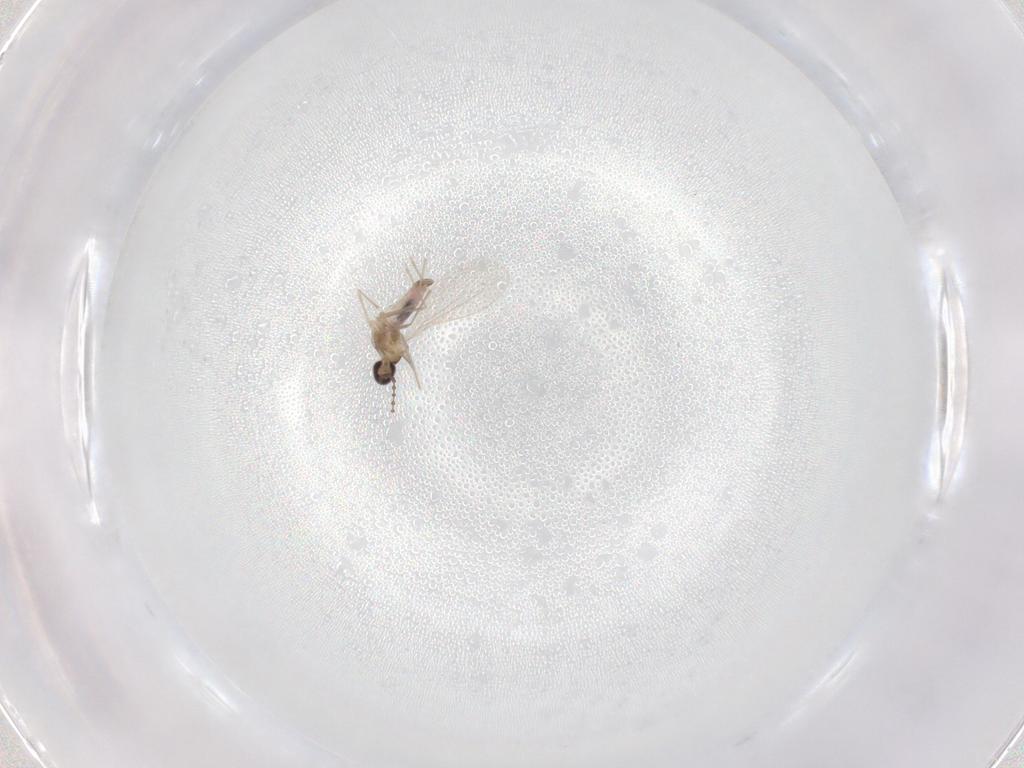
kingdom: Animalia
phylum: Arthropoda
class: Insecta
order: Diptera
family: Cecidomyiidae
